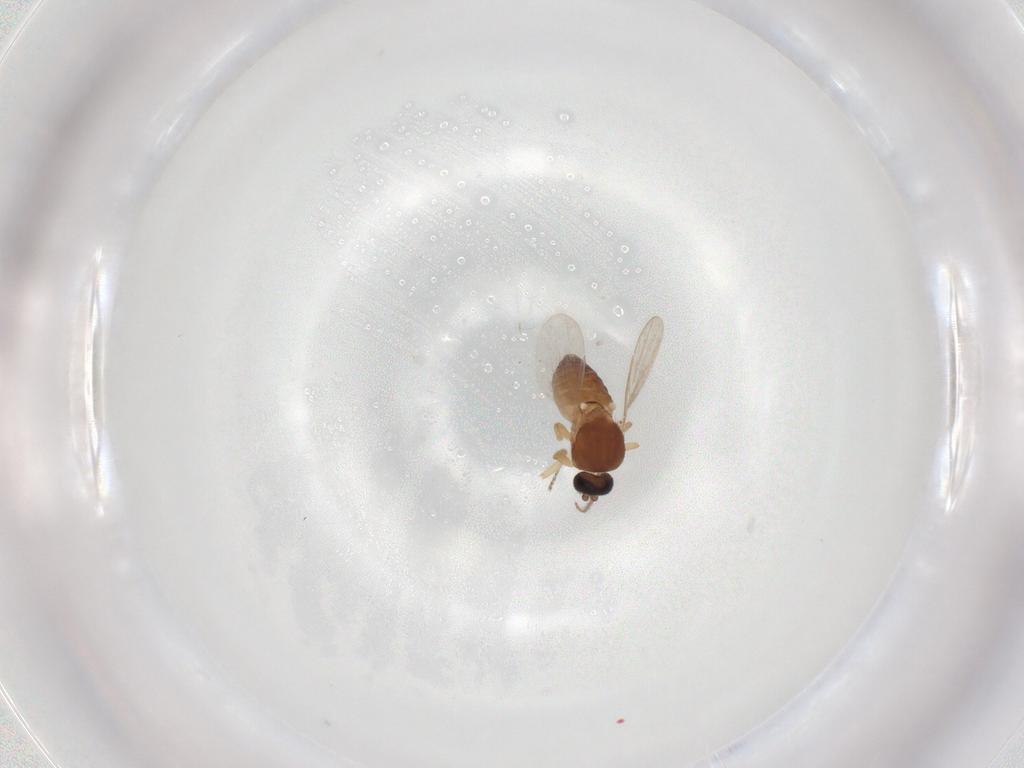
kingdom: Animalia
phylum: Arthropoda
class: Insecta
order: Diptera
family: Ceratopogonidae
